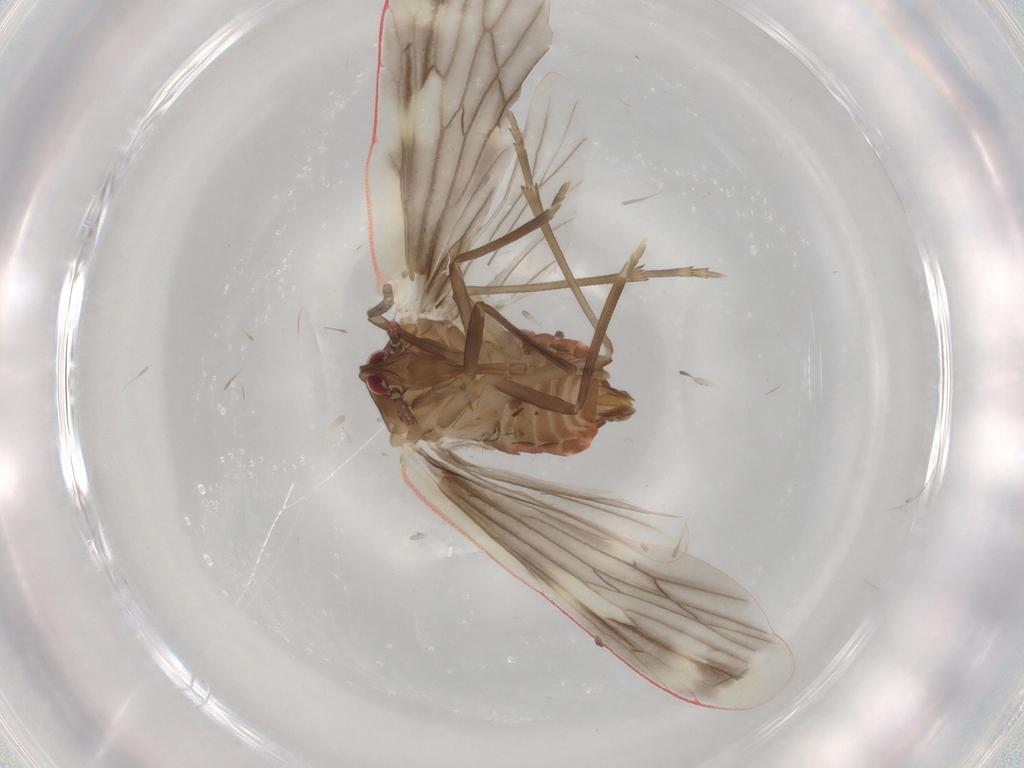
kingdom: Animalia
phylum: Arthropoda
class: Insecta
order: Hemiptera
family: Derbidae
